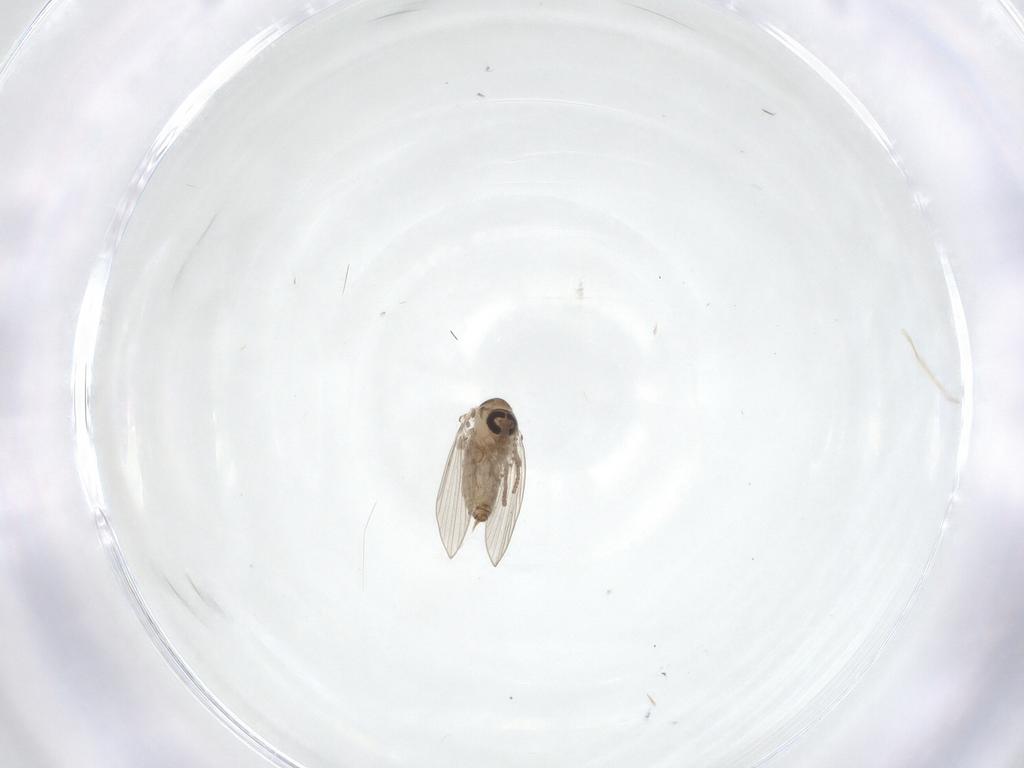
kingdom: Animalia
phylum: Arthropoda
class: Insecta
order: Diptera
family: Psychodidae
